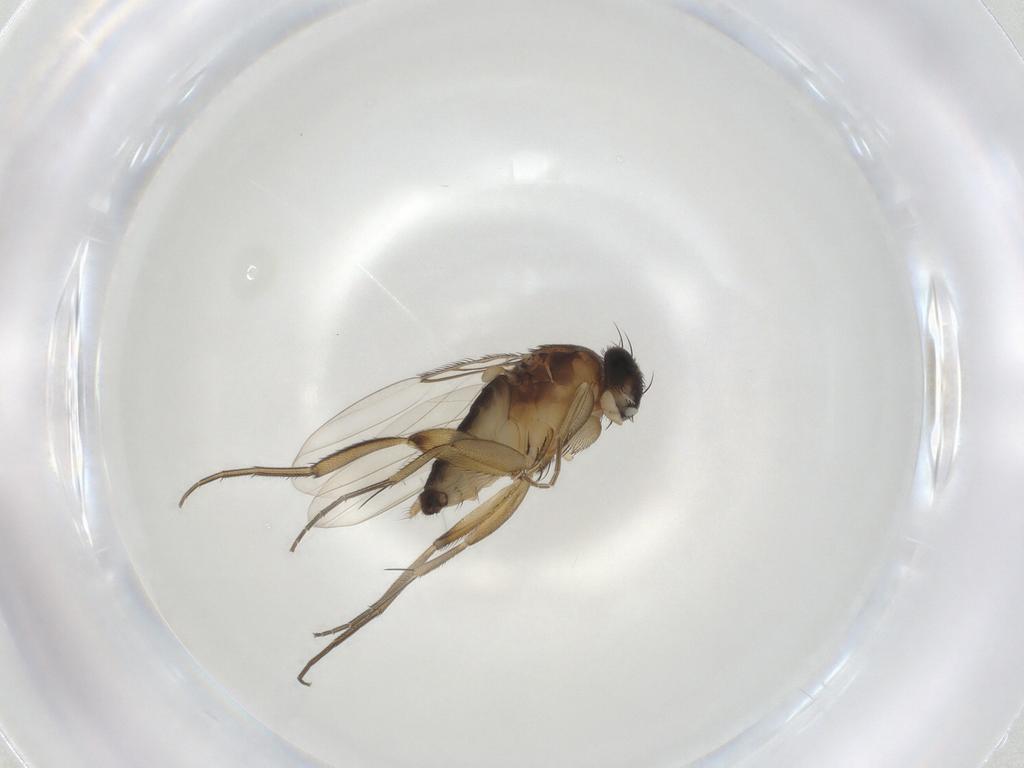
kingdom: Animalia
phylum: Arthropoda
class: Insecta
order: Diptera
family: Phoridae
